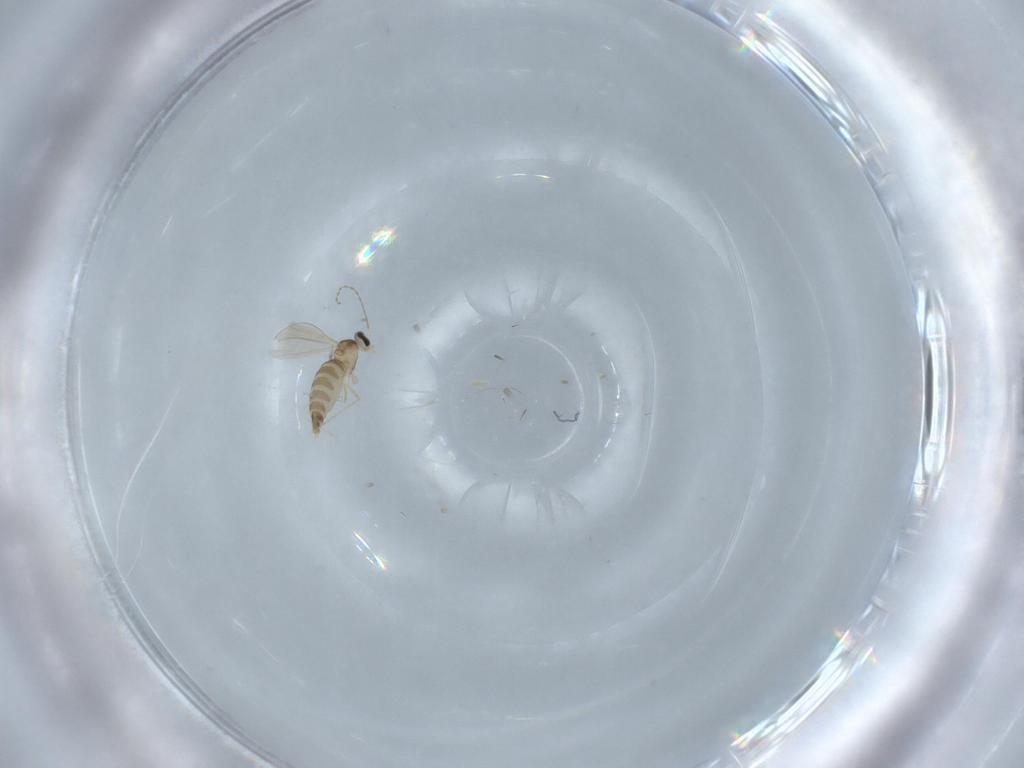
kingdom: Animalia
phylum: Arthropoda
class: Insecta
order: Diptera
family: Cecidomyiidae
